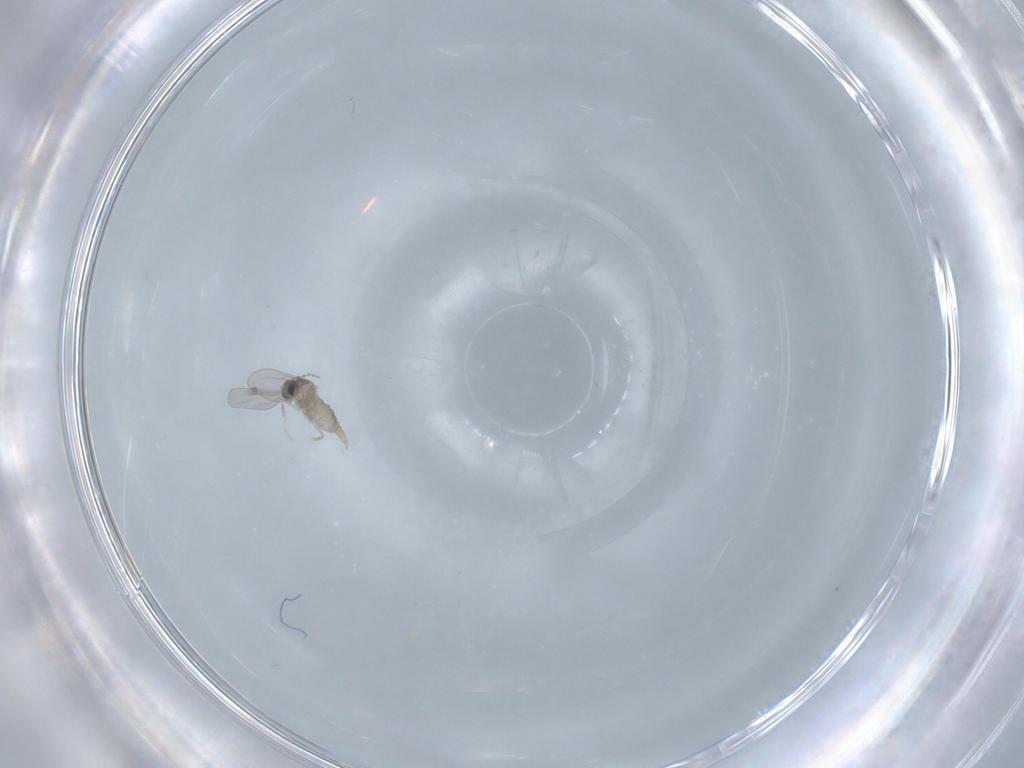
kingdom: Animalia
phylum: Arthropoda
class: Insecta
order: Diptera
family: Cecidomyiidae
